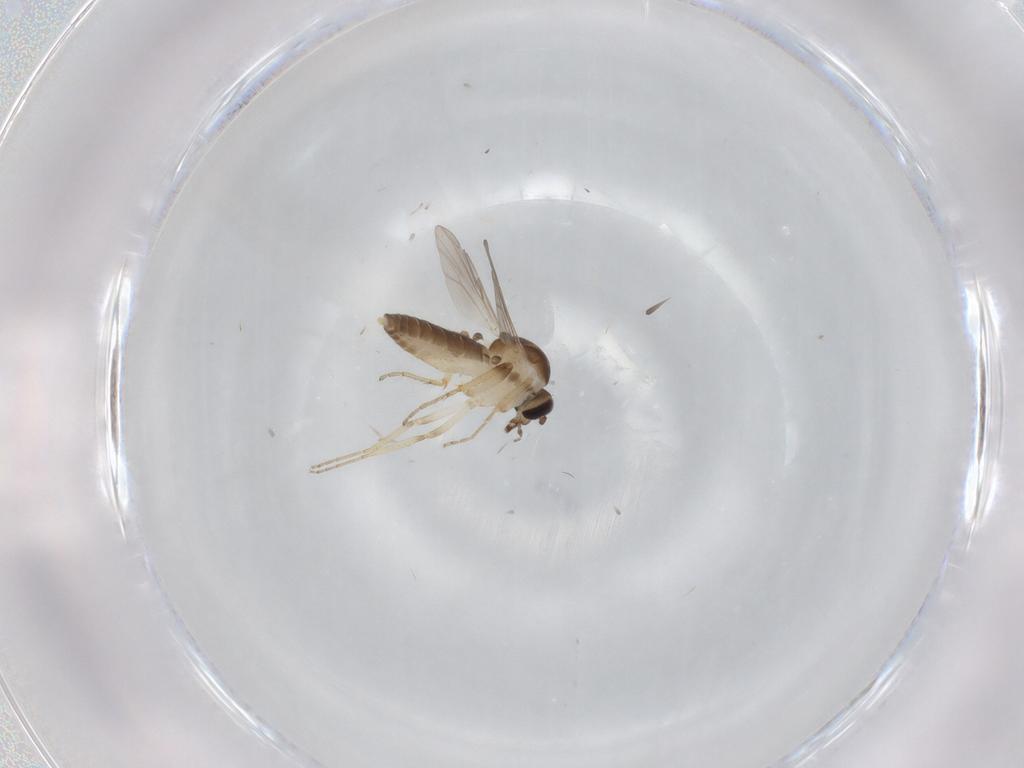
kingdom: Animalia
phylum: Arthropoda
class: Insecta
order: Diptera
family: Ceratopogonidae
